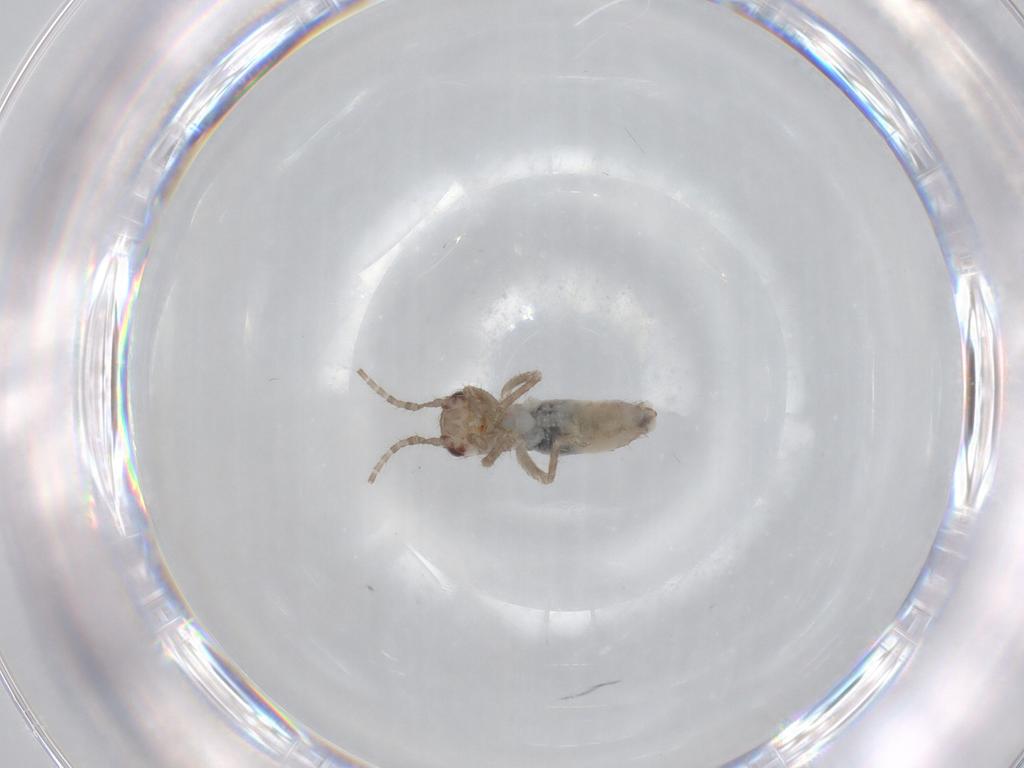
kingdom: Animalia
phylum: Arthropoda
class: Insecta
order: Orthoptera
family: Mogoplistidae
